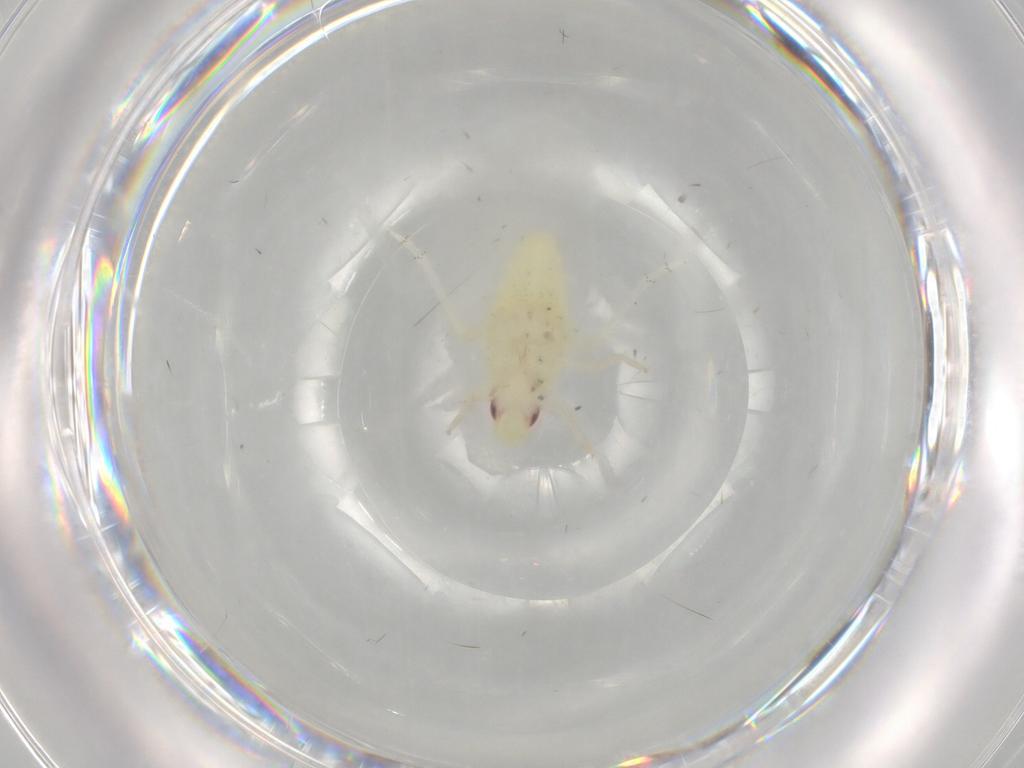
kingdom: Animalia
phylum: Arthropoda
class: Insecta
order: Hemiptera
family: Tropiduchidae
